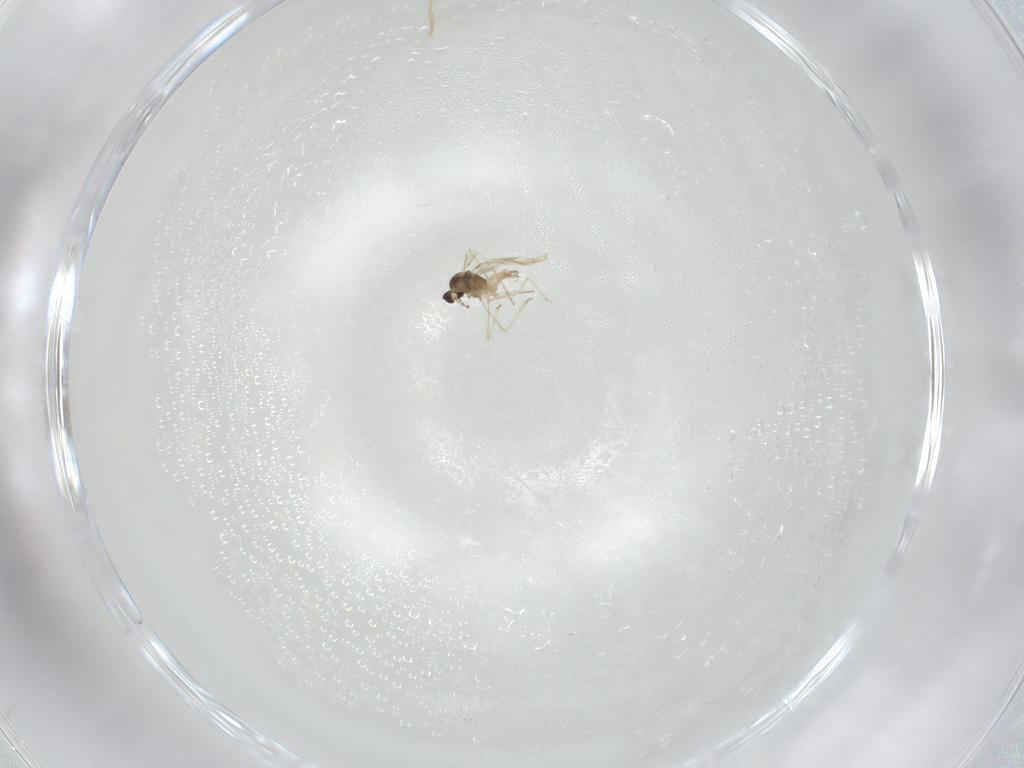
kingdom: Animalia
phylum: Arthropoda
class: Insecta
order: Diptera
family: Cecidomyiidae
